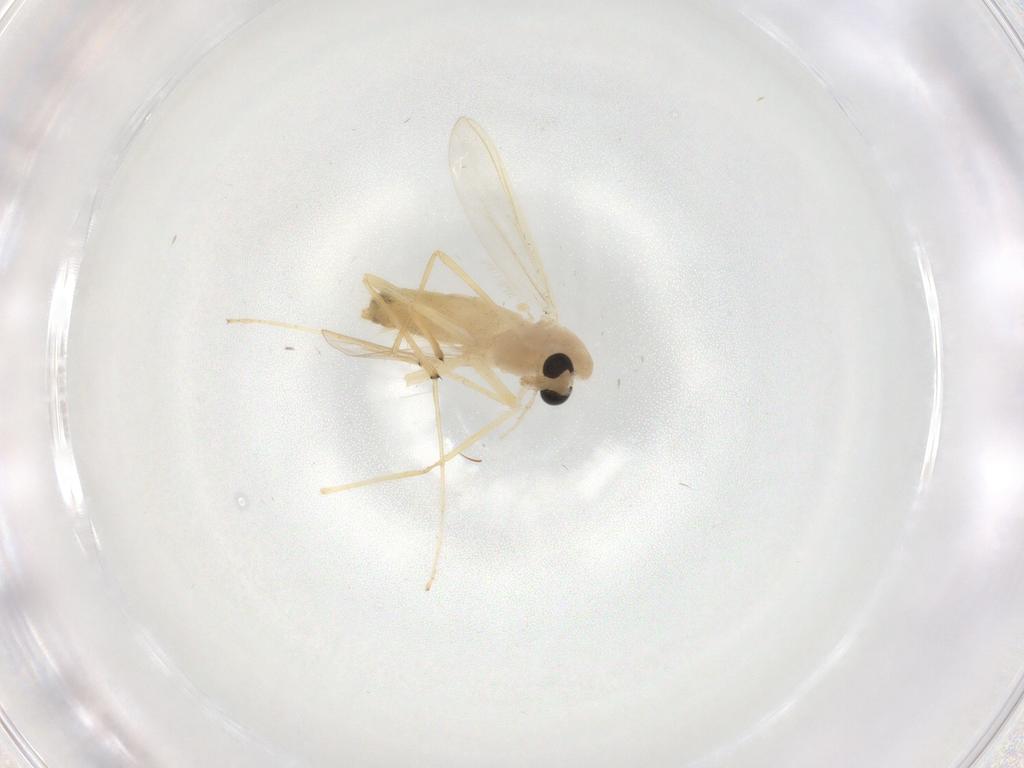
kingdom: Animalia
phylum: Arthropoda
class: Insecta
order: Diptera
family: Chironomidae
